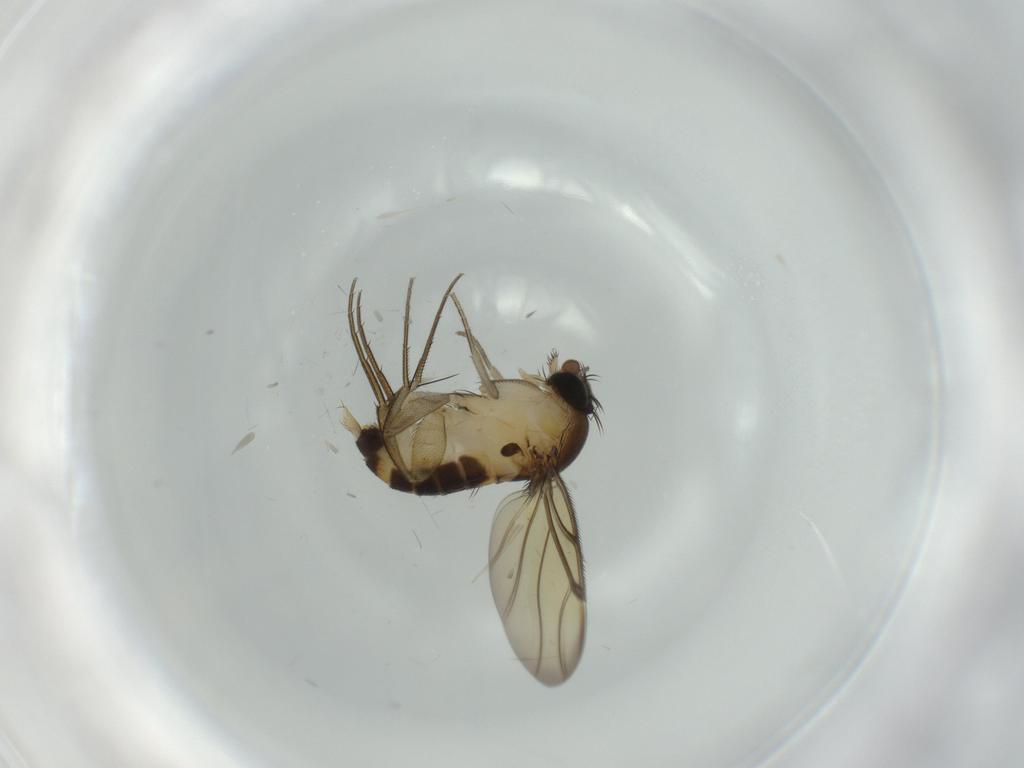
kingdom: Animalia
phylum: Arthropoda
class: Insecta
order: Diptera
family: Phoridae
